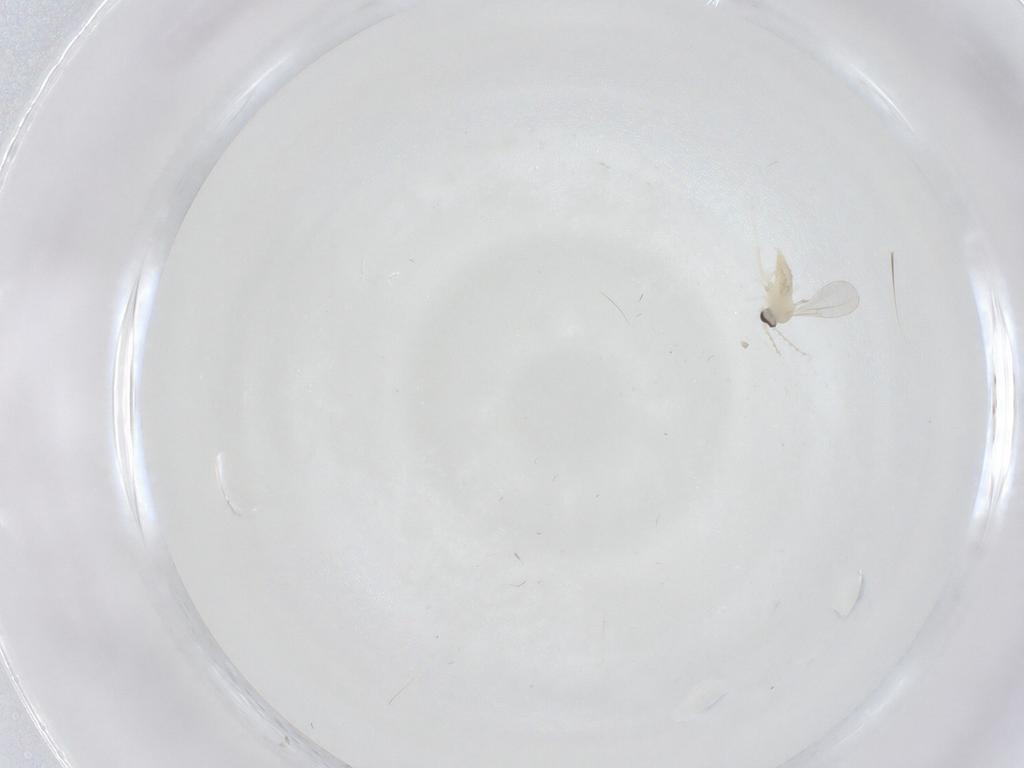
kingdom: Animalia
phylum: Arthropoda
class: Insecta
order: Diptera
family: Cecidomyiidae
